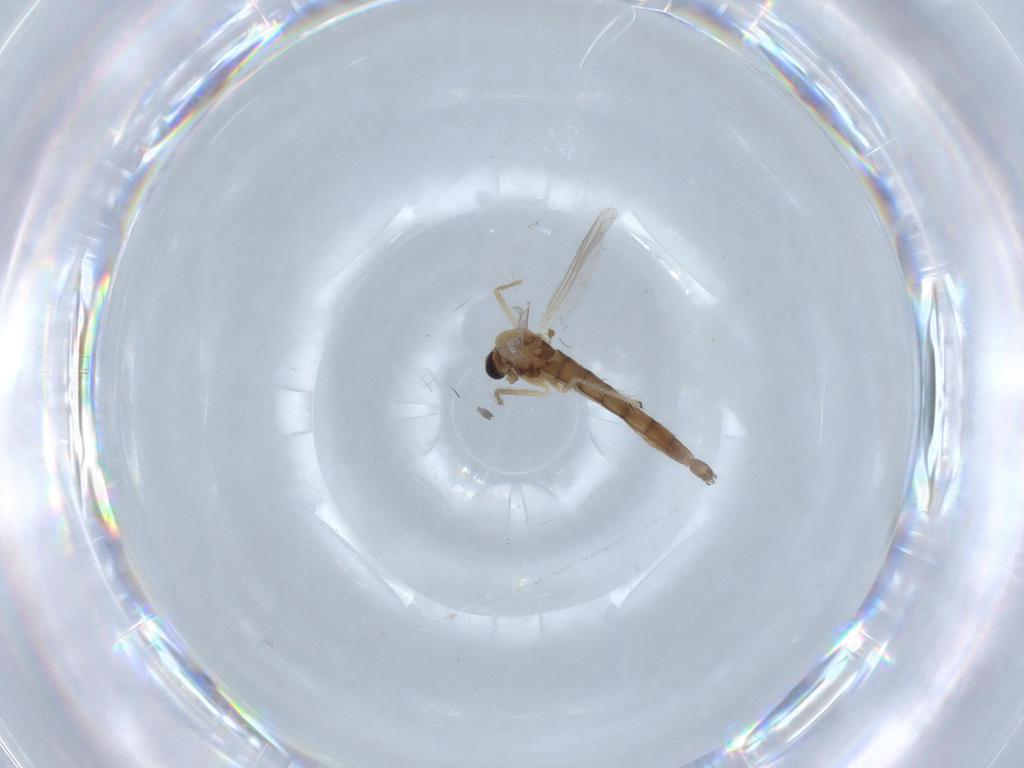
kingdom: Animalia
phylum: Arthropoda
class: Insecta
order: Diptera
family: Chironomidae
